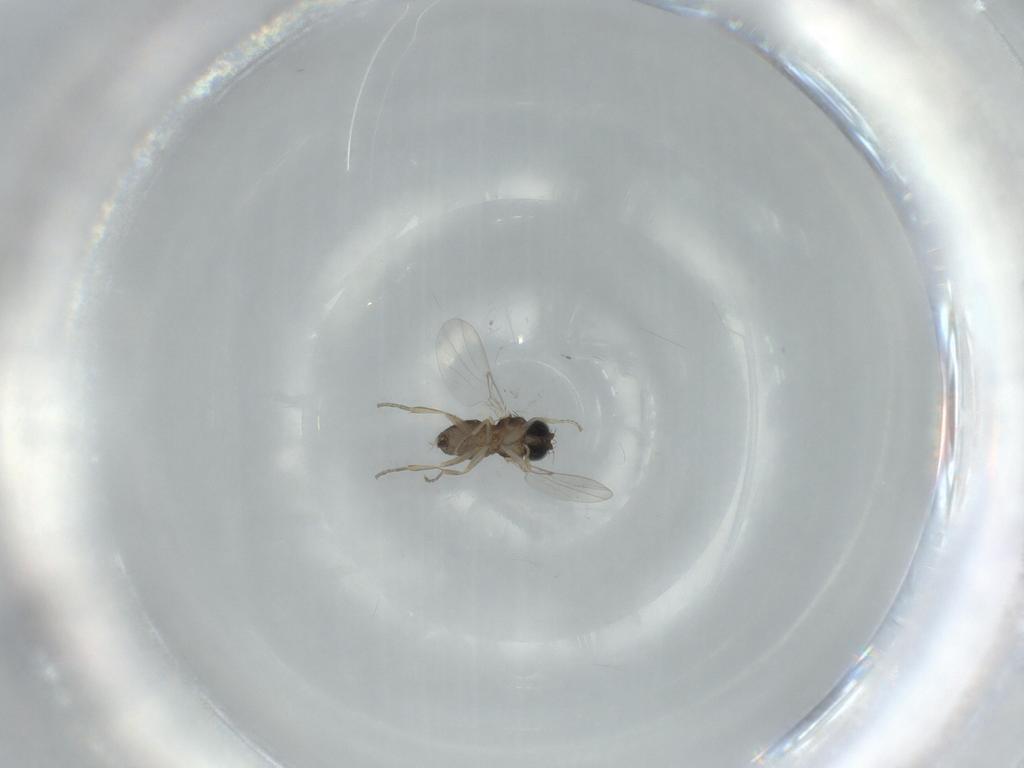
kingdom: Animalia
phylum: Arthropoda
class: Insecta
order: Diptera
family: Phoridae
